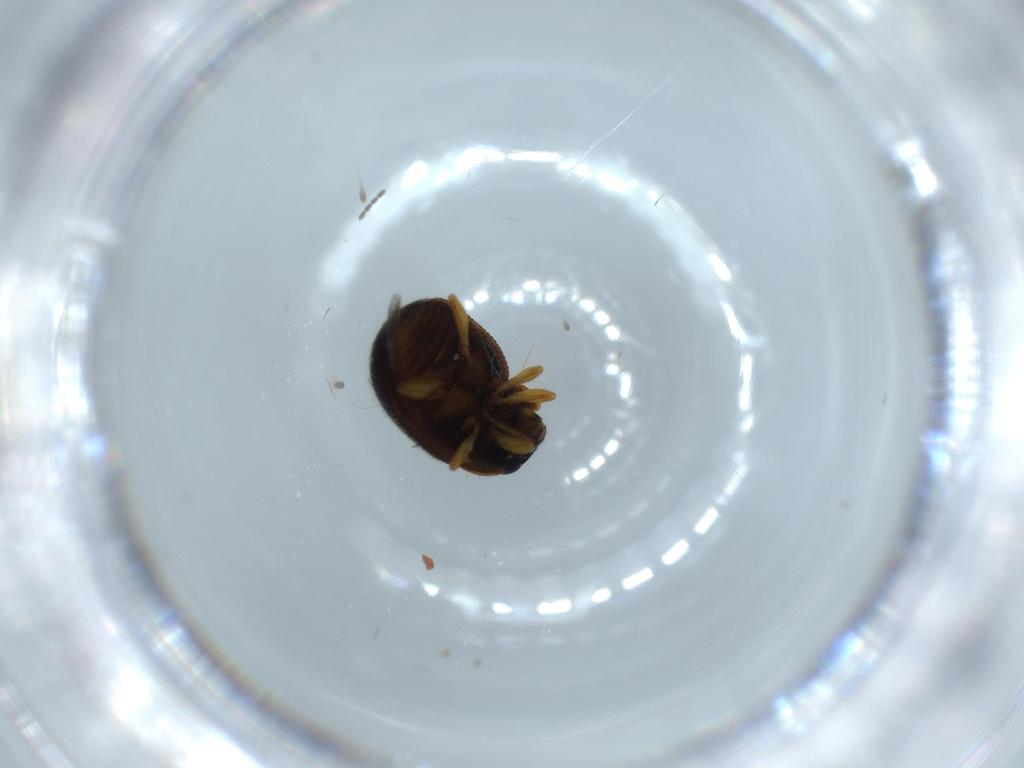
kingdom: Animalia
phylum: Arthropoda
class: Insecta
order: Coleoptera
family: Coccinellidae
